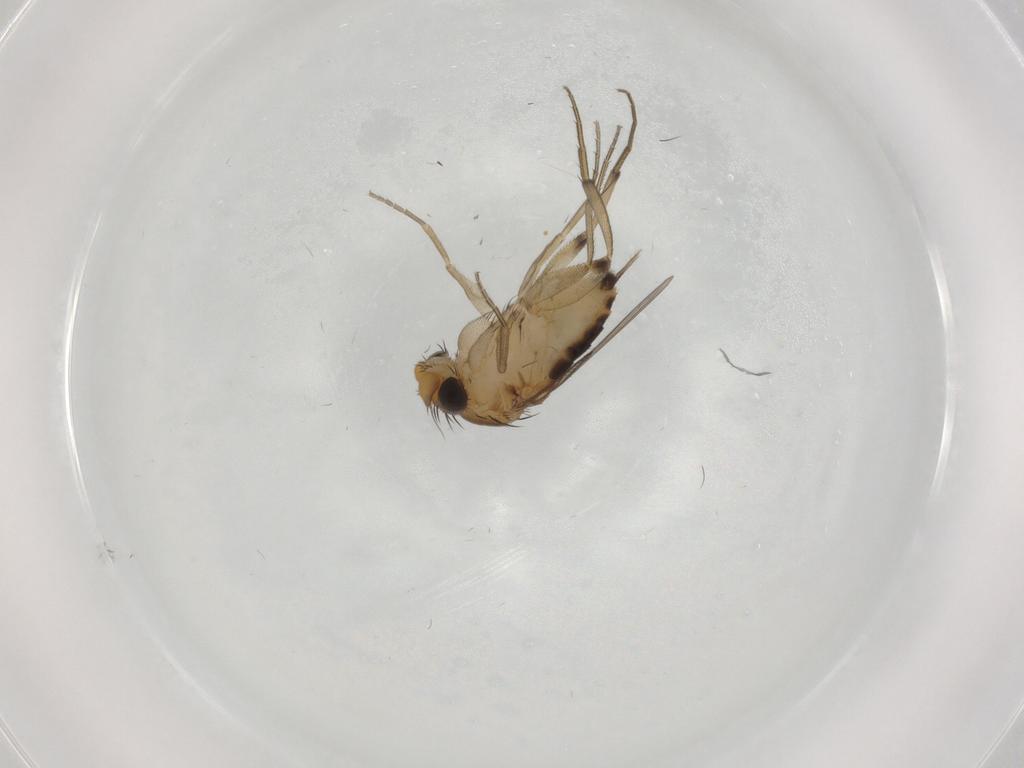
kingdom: Animalia
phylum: Arthropoda
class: Insecta
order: Diptera
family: Phoridae
